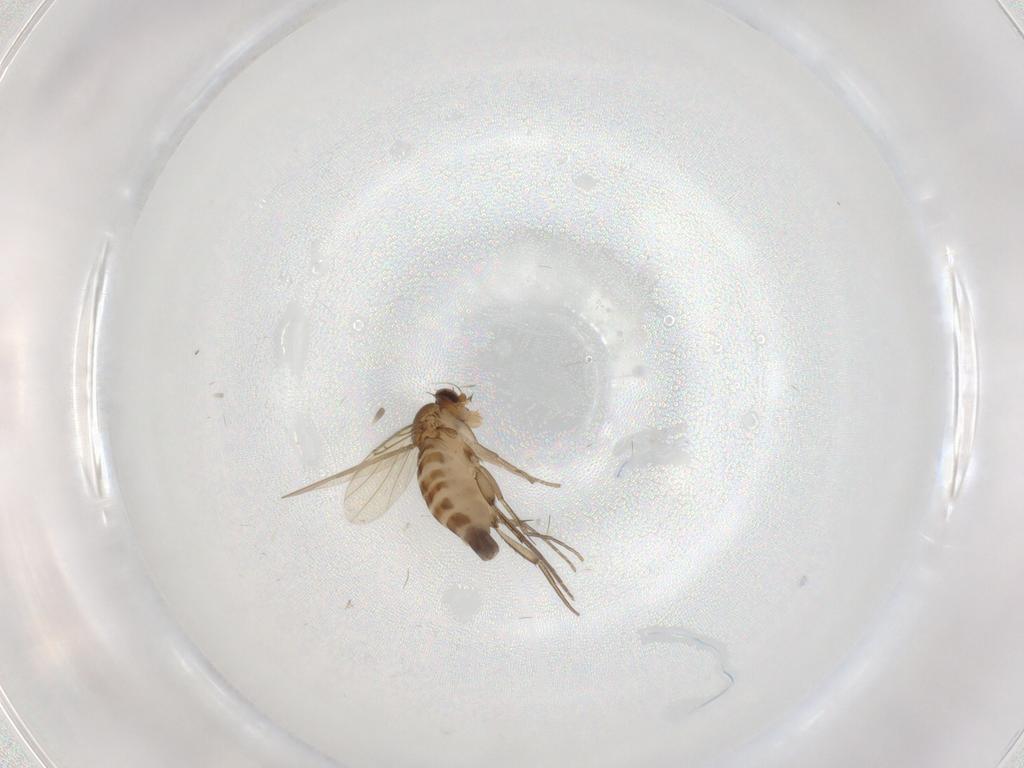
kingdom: Animalia
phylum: Arthropoda
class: Insecta
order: Diptera
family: Phoridae
